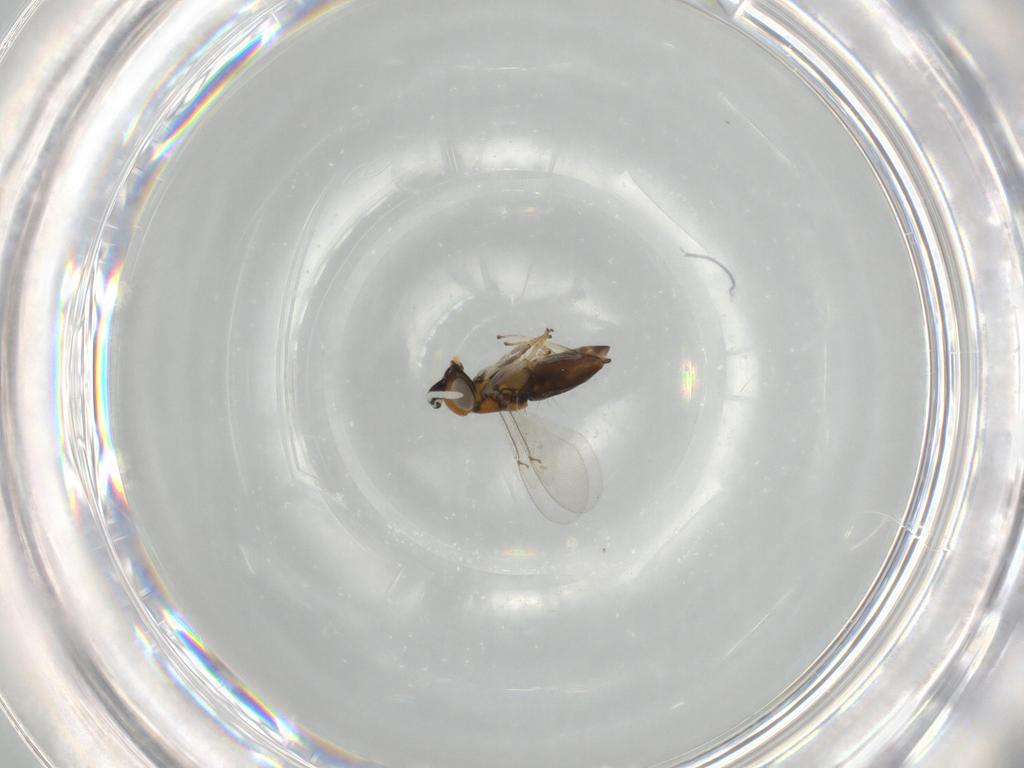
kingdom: Animalia
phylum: Arthropoda
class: Insecta
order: Hymenoptera
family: Encyrtidae
